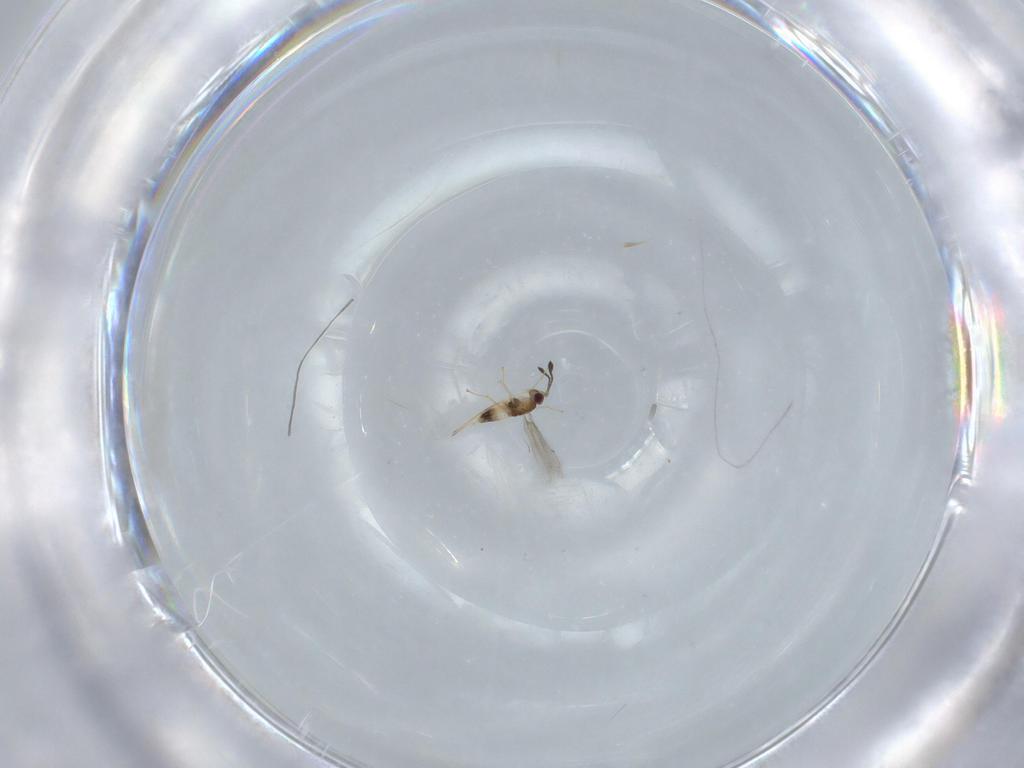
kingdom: Animalia
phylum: Arthropoda
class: Insecta
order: Hymenoptera
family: Mymaridae
